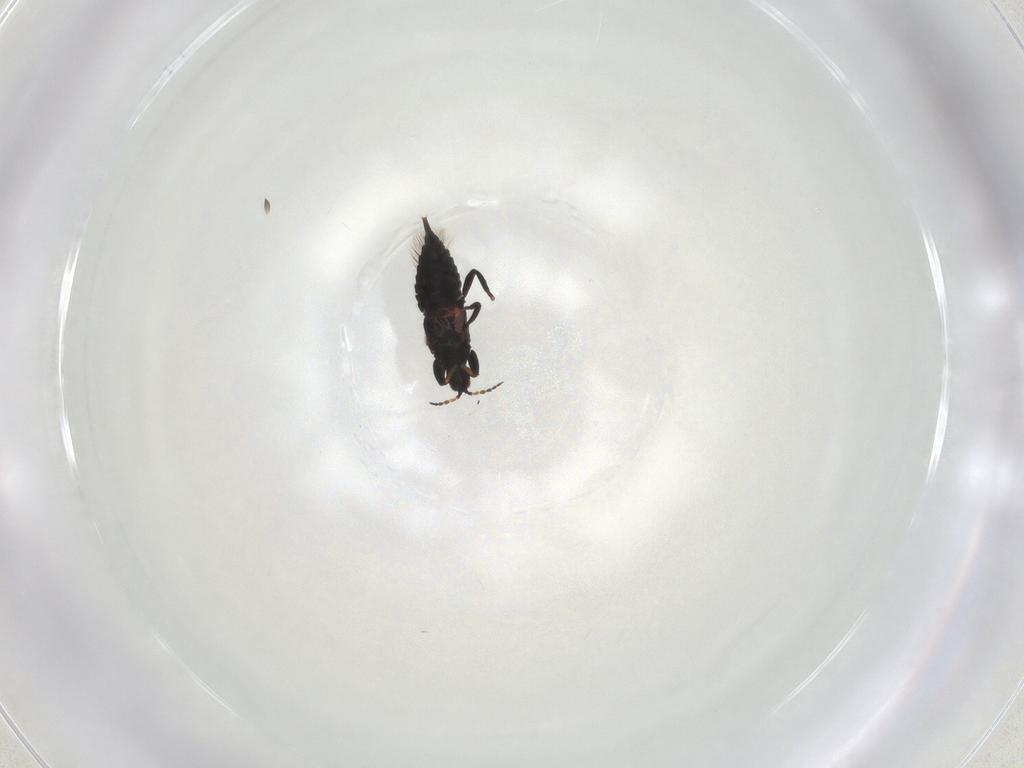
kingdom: Animalia
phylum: Arthropoda
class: Insecta
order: Thysanoptera
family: Phlaeothripidae
